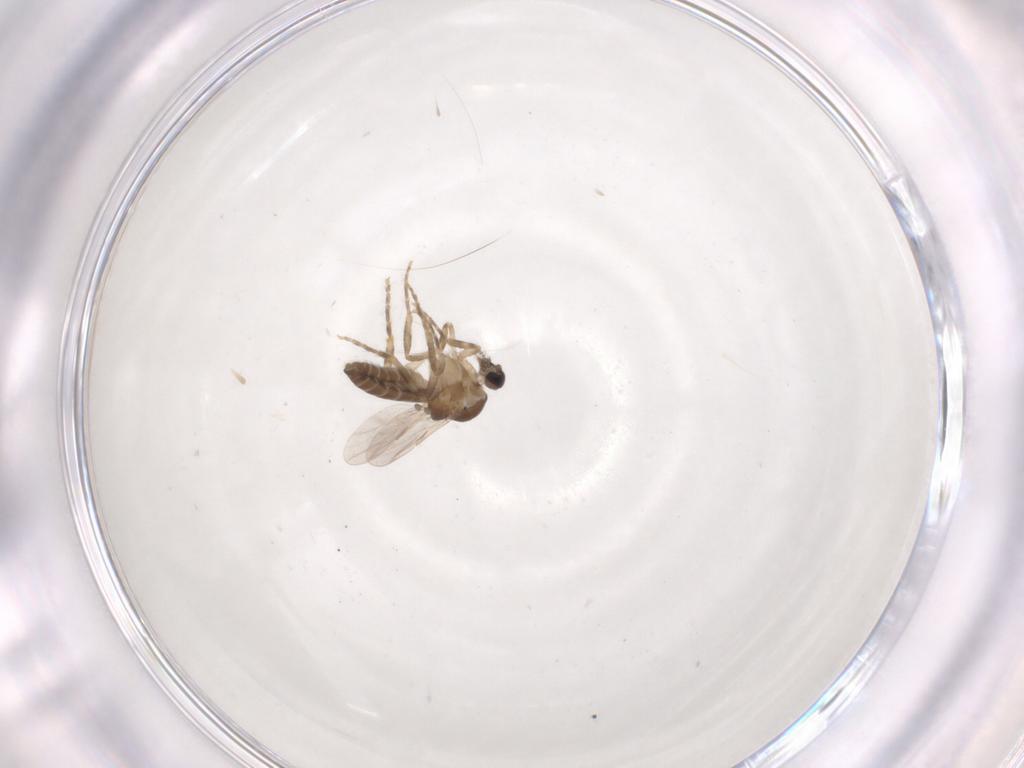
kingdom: Animalia
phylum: Arthropoda
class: Insecta
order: Diptera
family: Ceratopogonidae
